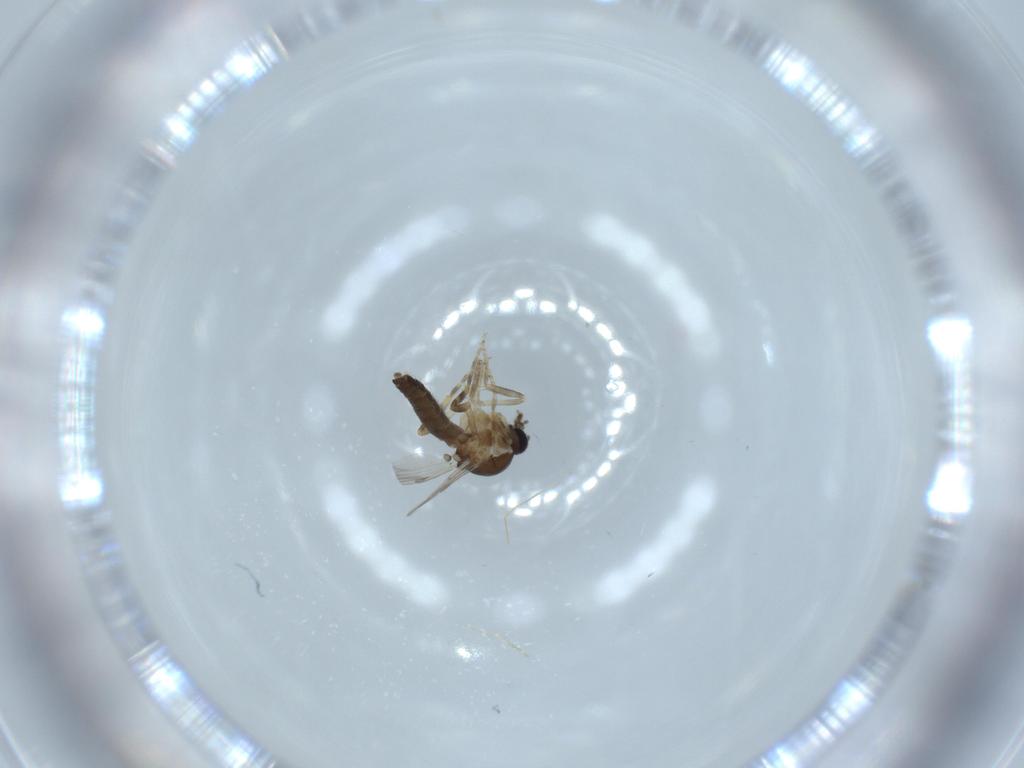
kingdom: Animalia
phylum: Arthropoda
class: Insecta
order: Diptera
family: Ceratopogonidae
